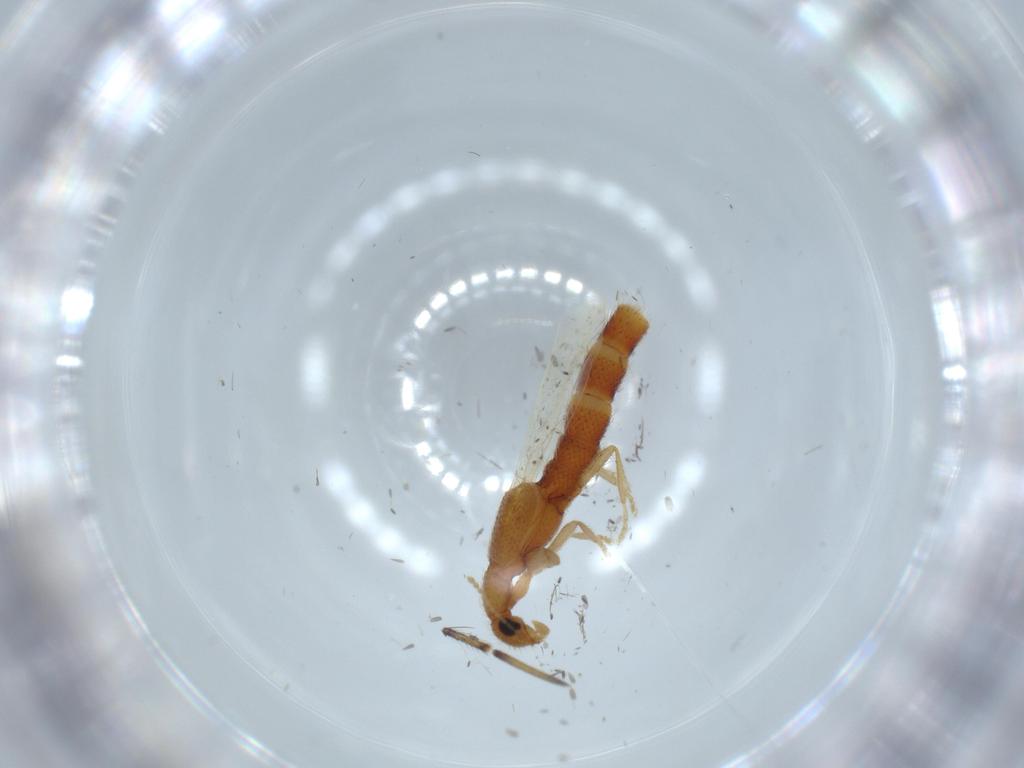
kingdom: Animalia
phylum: Arthropoda
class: Insecta
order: Coleoptera
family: Staphylinidae
